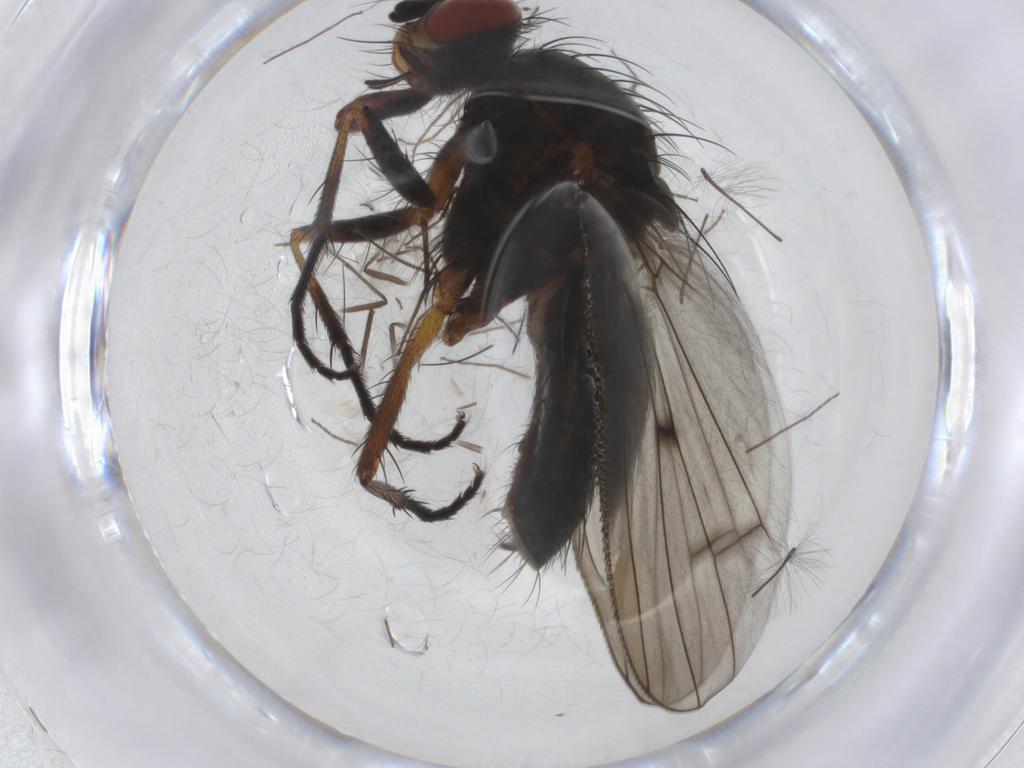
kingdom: Animalia
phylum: Arthropoda
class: Insecta
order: Diptera
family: Anthomyiidae
